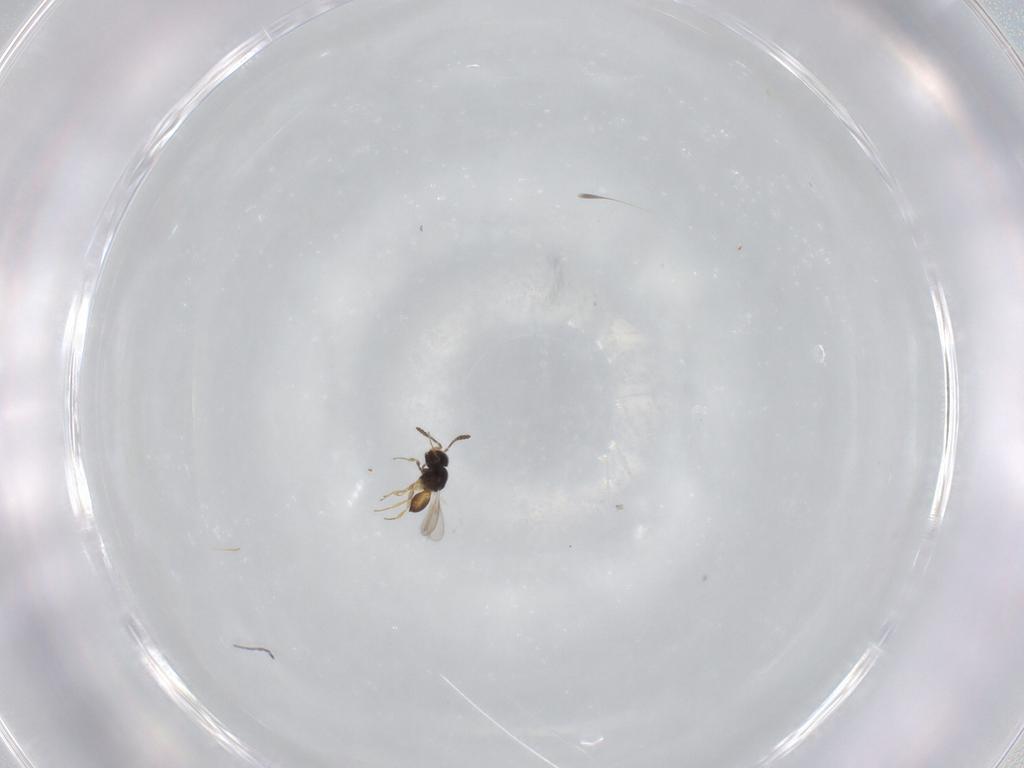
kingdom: Animalia
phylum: Arthropoda
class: Insecta
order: Hymenoptera
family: Scelionidae
